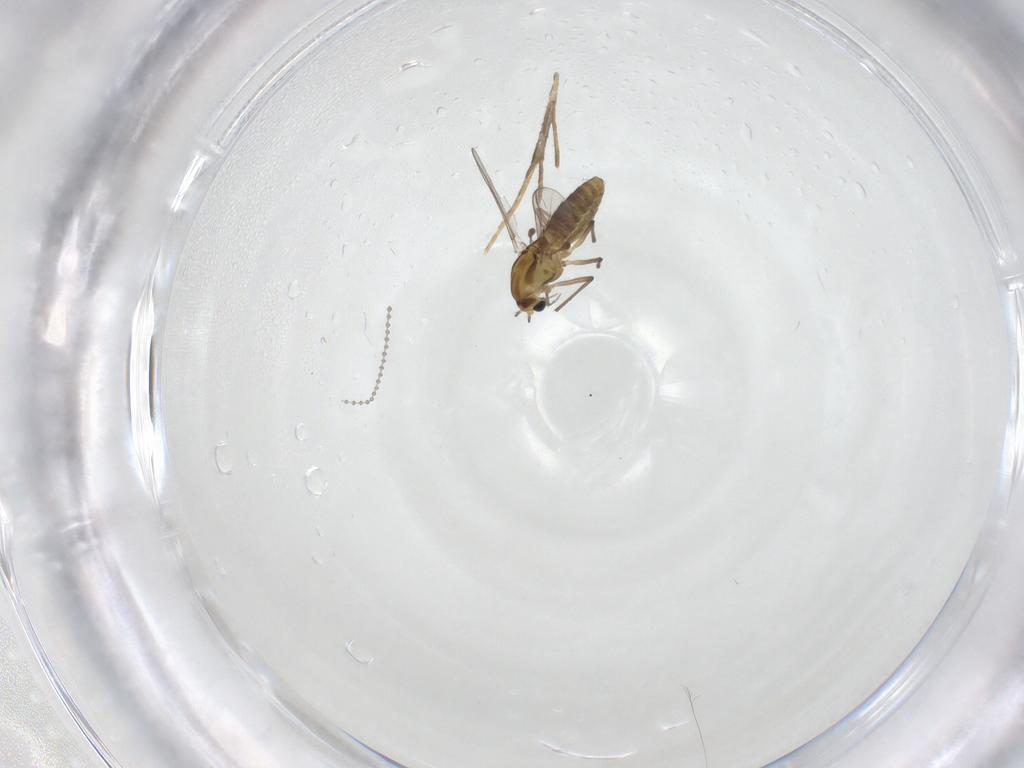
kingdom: Animalia
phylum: Arthropoda
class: Insecta
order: Diptera
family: Chironomidae
